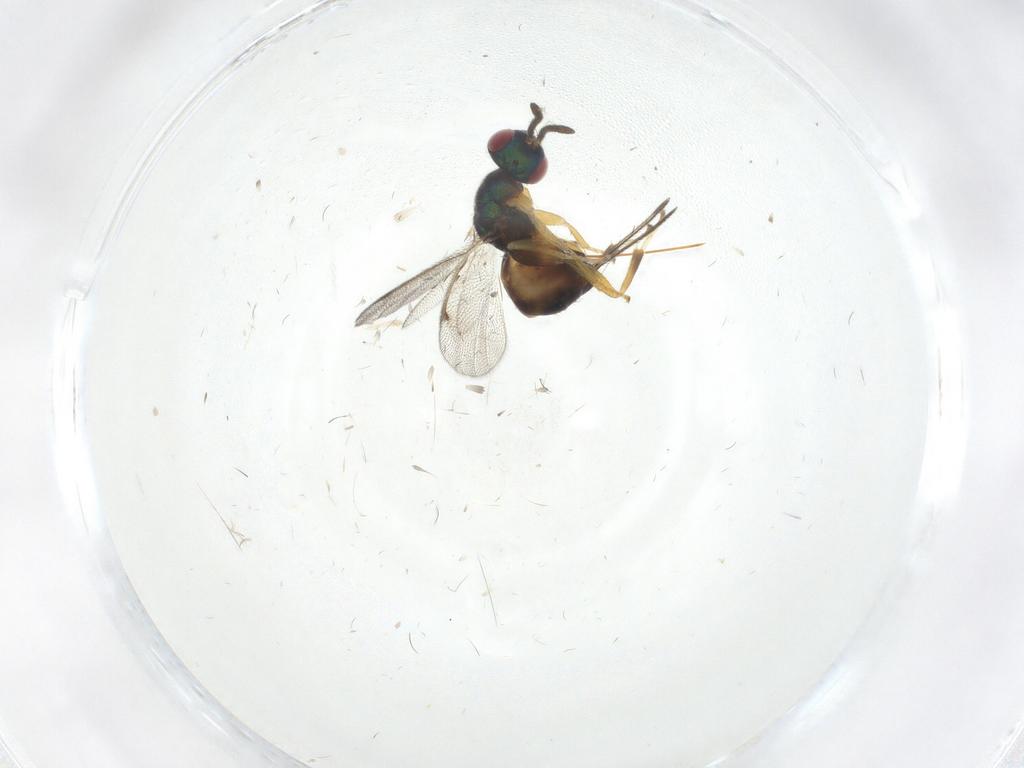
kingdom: Animalia
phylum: Arthropoda
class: Insecta
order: Hymenoptera
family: Torymidae
